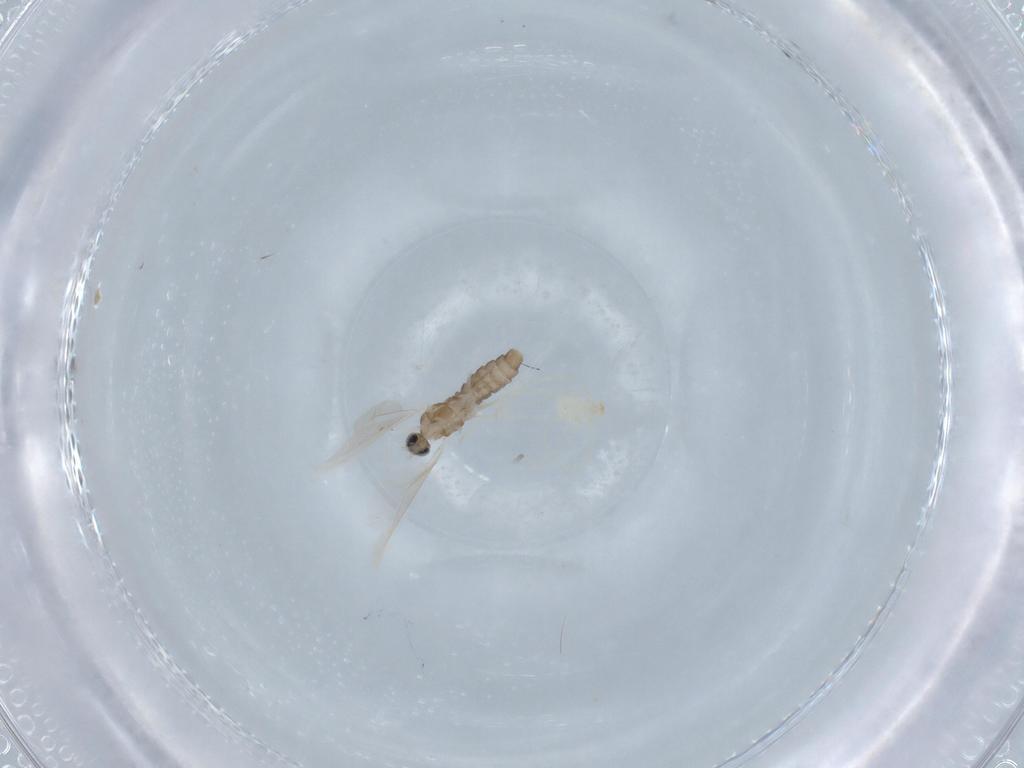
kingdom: Animalia
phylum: Arthropoda
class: Insecta
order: Diptera
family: Cecidomyiidae
